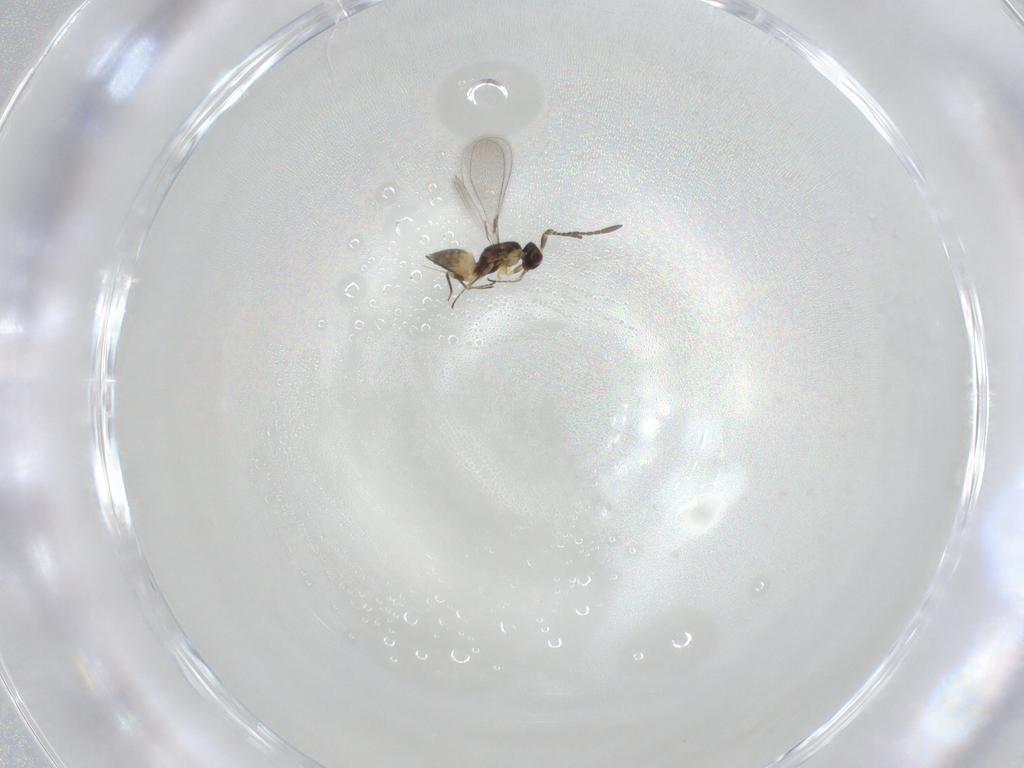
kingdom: Animalia
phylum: Arthropoda
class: Insecta
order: Hymenoptera
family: Mymaridae
